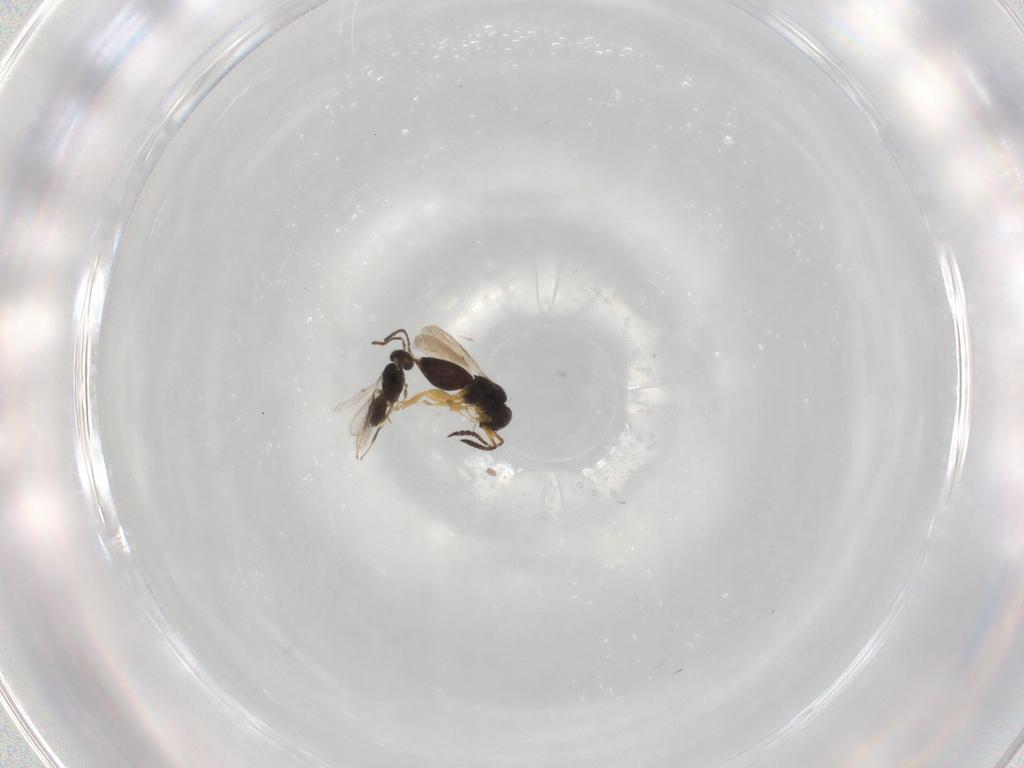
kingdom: Animalia
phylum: Arthropoda
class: Insecta
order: Hymenoptera
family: Scelionidae
